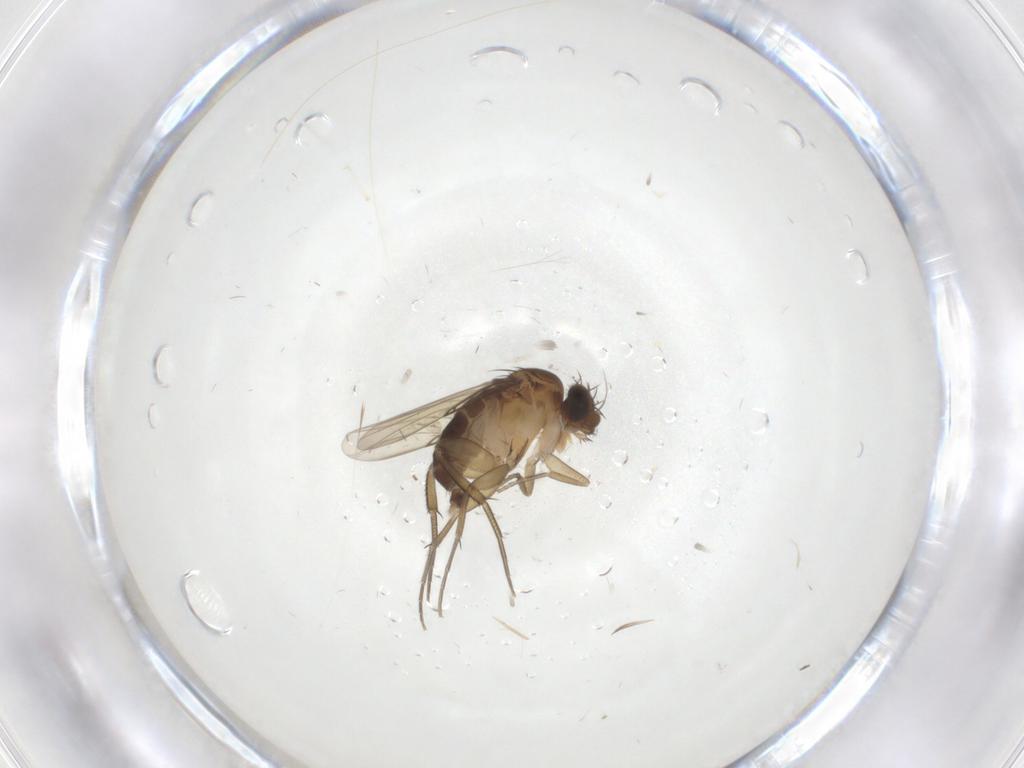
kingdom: Animalia
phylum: Arthropoda
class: Insecta
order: Diptera
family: Phoridae
